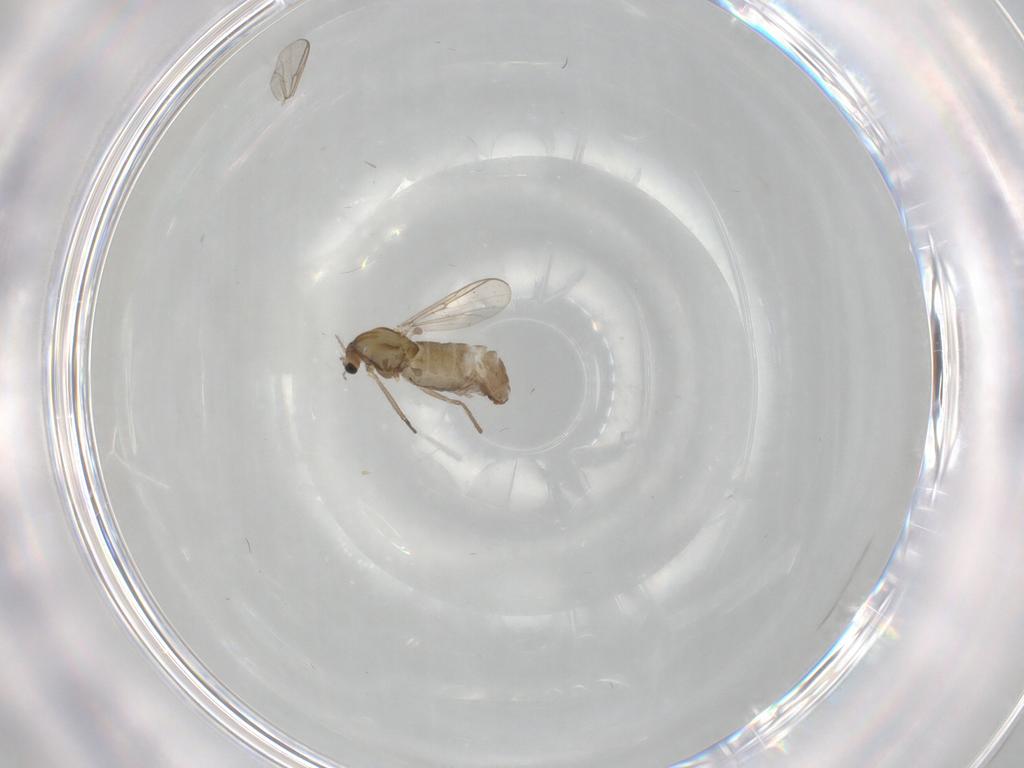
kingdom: Animalia
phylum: Arthropoda
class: Insecta
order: Diptera
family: Chironomidae
